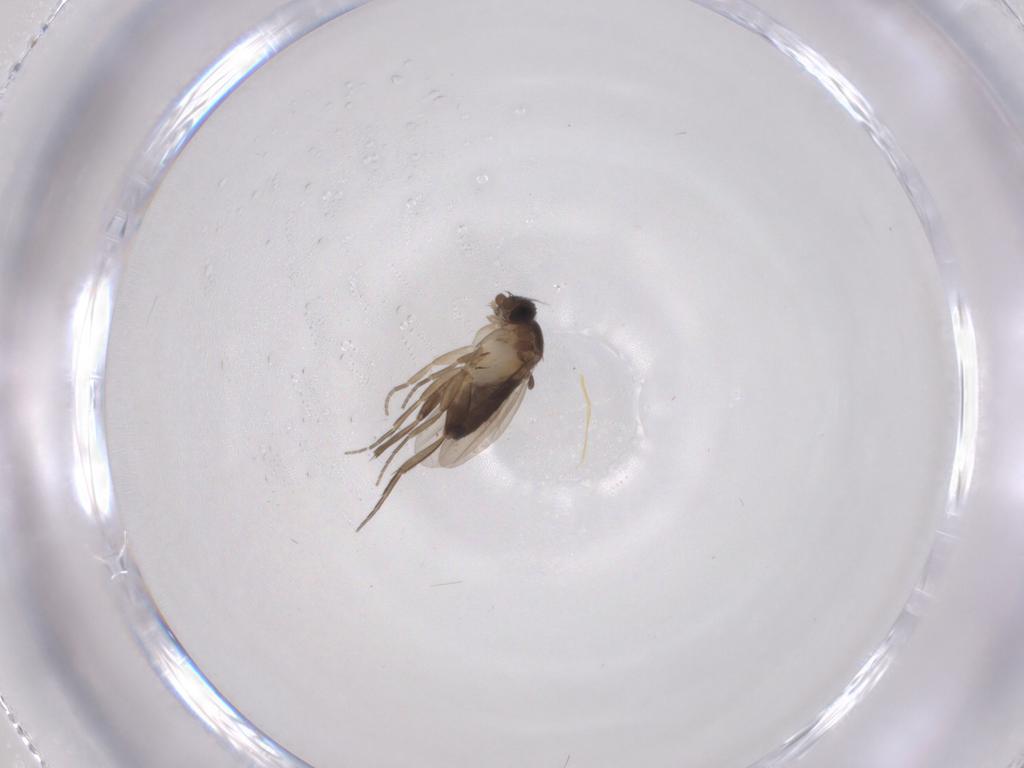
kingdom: Animalia
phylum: Arthropoda
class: Insecta
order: Diptera
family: Phoridae
